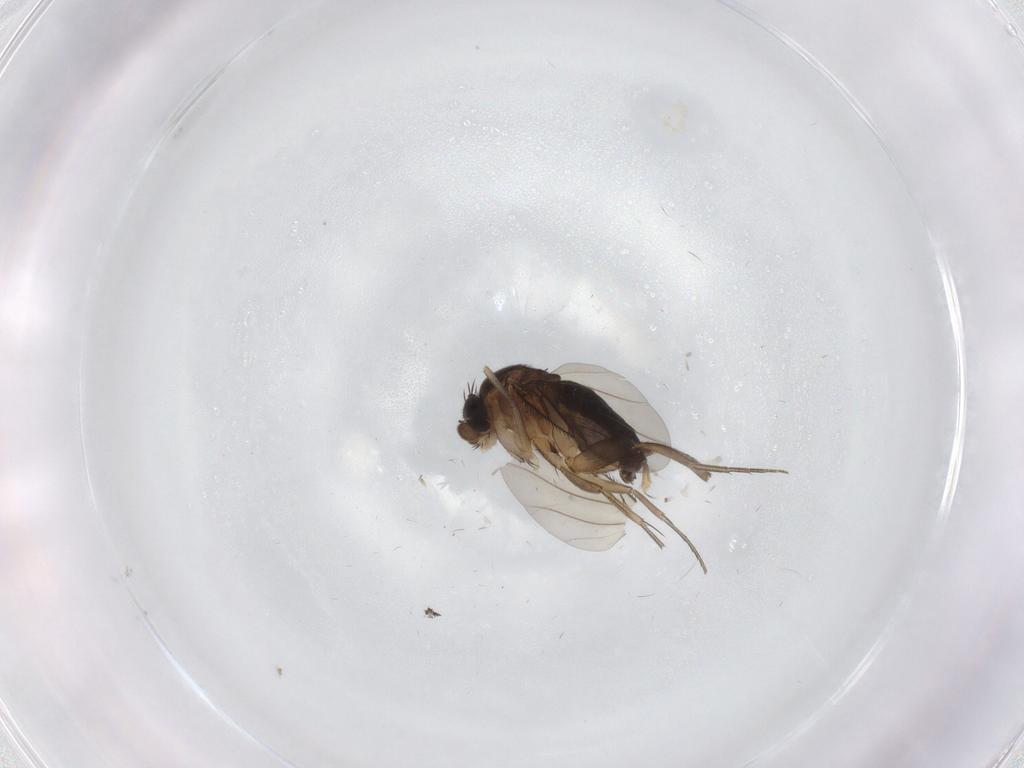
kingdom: Animalia
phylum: Arthropoda
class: Insecta
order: Diptera
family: Phoridae
